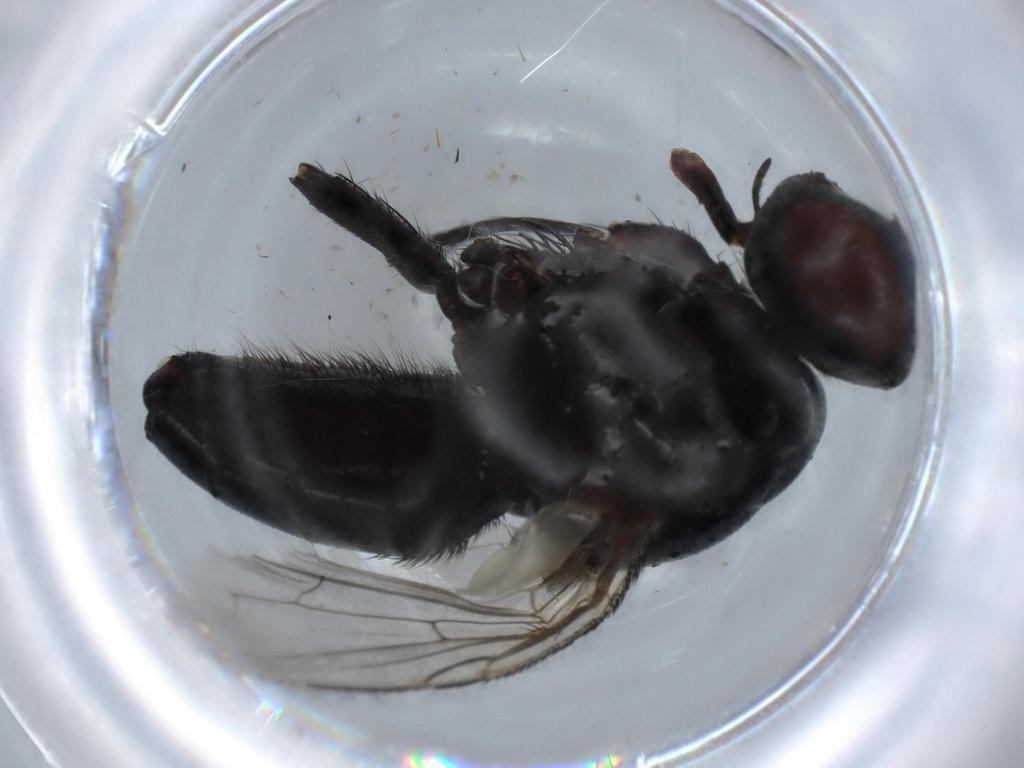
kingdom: Animalia
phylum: Arthropoda
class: Insecta
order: Diptera
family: Sarcophagidae
